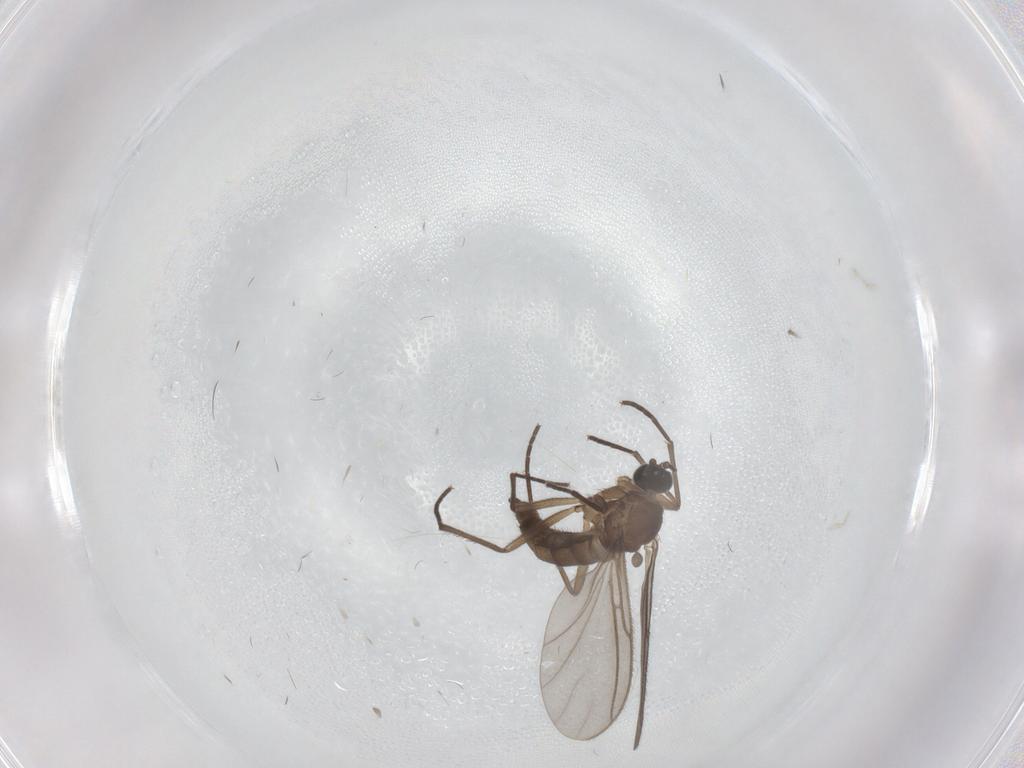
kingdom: Animalia
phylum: Arthropoda
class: Insecta
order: Diptera
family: Sciaridae
